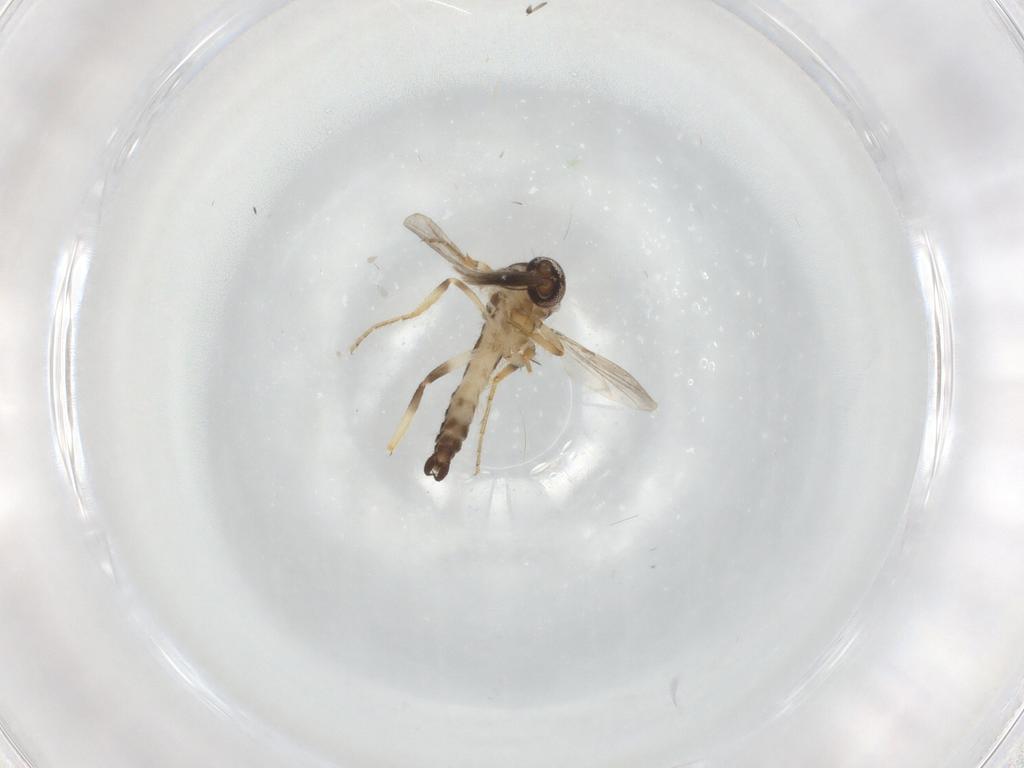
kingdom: Animalia
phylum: Arthropoda
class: Insecta
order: Diptera
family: Ceratopogonidae
